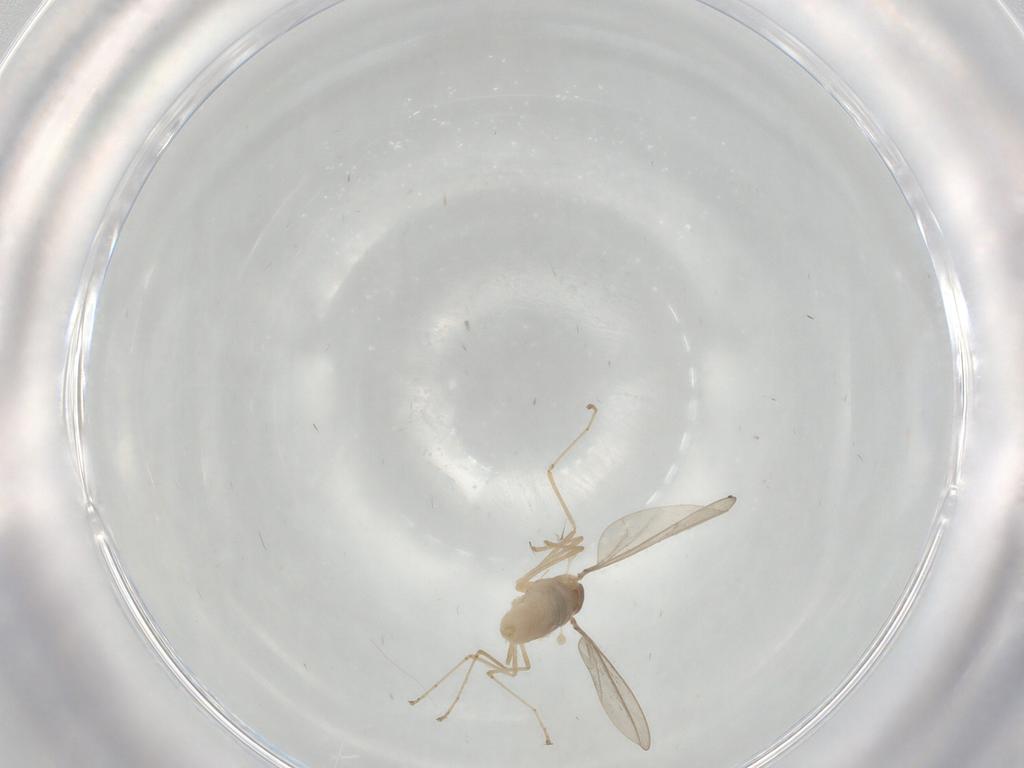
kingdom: Animalia
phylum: Arthropoda
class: Insecta
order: Diptera
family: Cecidomyiidae
